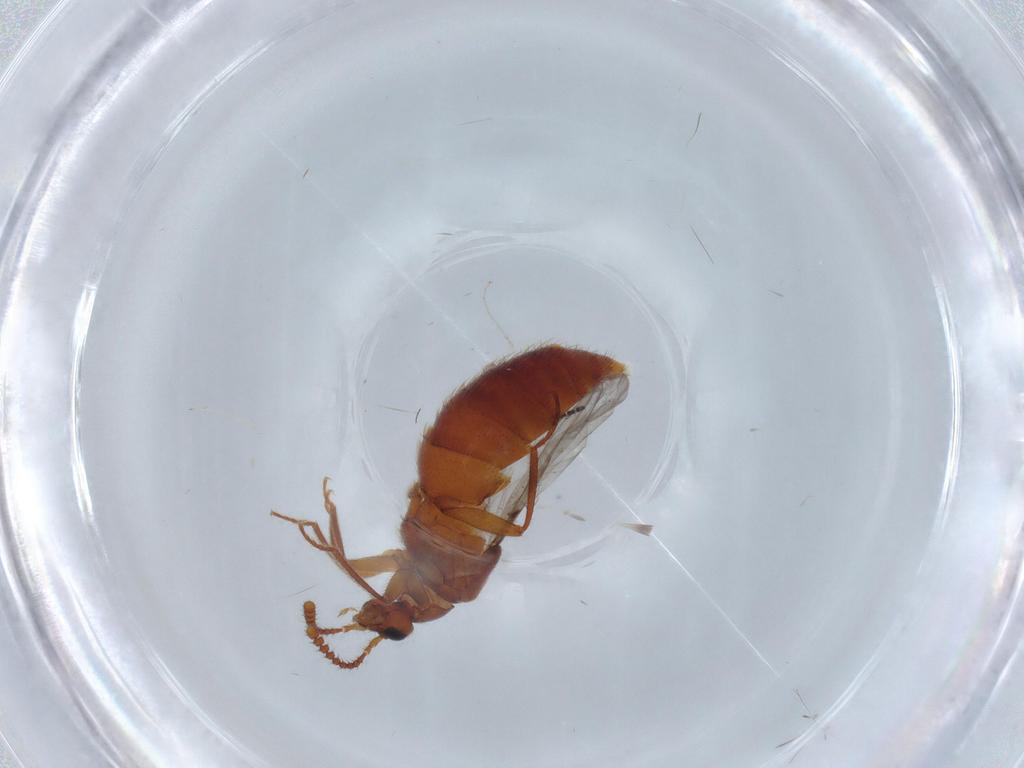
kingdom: Animalia
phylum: Arthropoda
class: Insecta
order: Coleoptera
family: Staphylinidae
